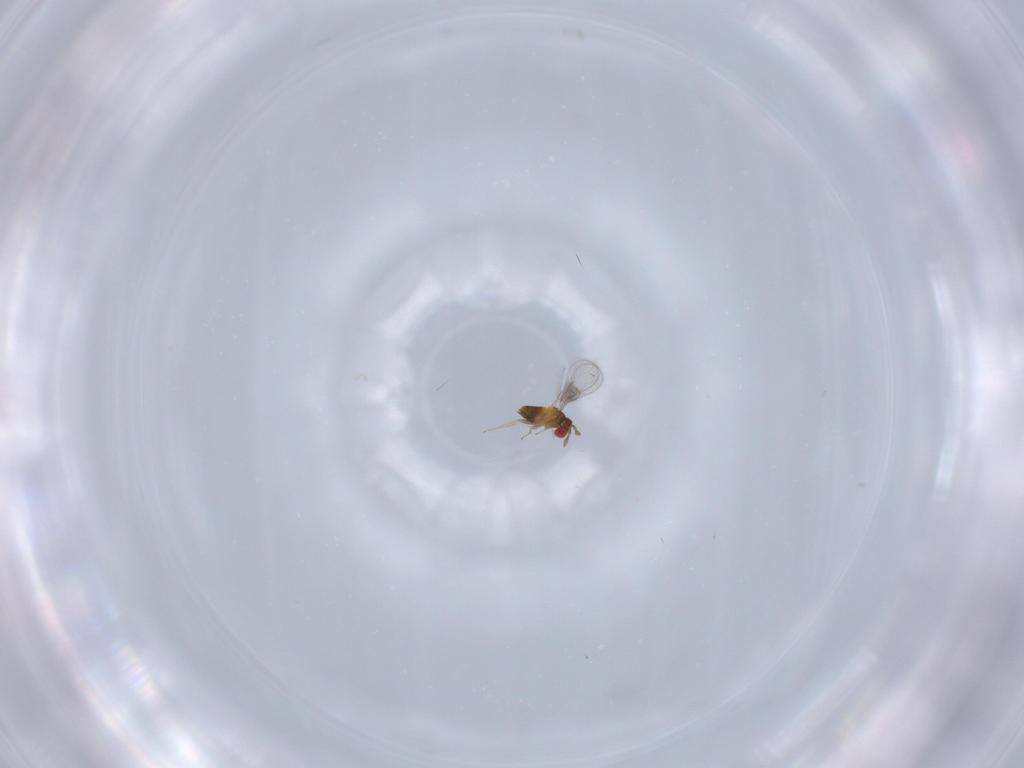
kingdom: Animalia
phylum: Arthropoda
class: Insecta
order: Hymenoptera
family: Trichogrammatidae
